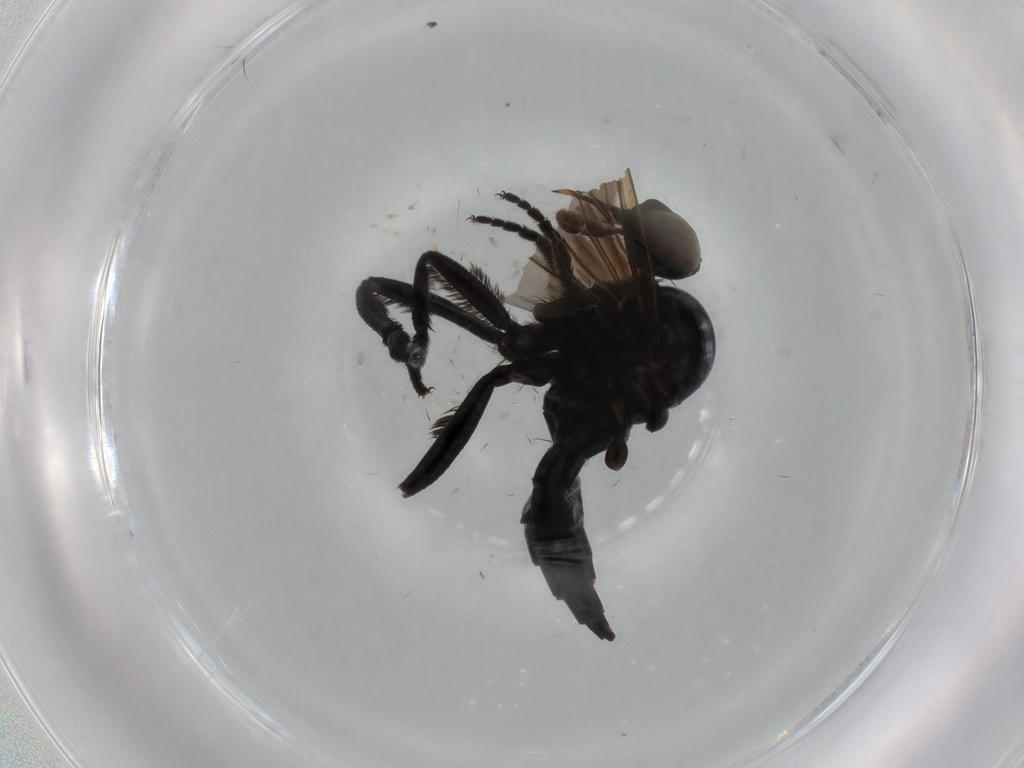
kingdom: Animalia
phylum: Arthropoda
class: Insecta
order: Diptera
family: Empididae
